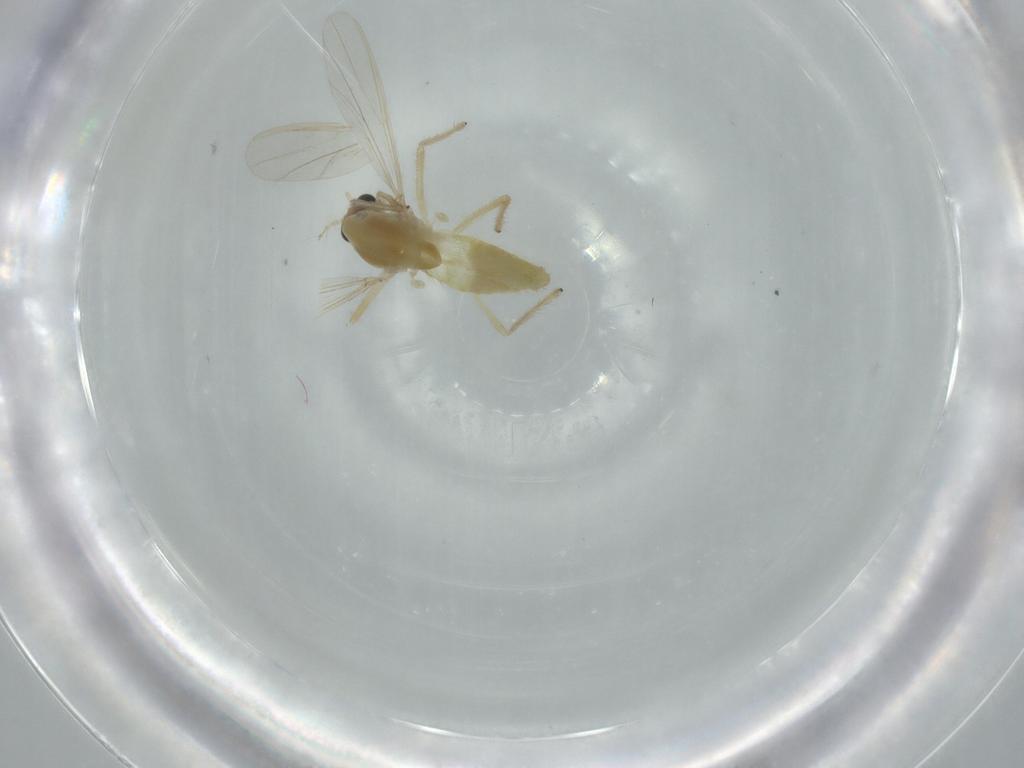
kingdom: Animalia
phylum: Arthropoda
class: Insecta
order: Diptera
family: Chironomidae
